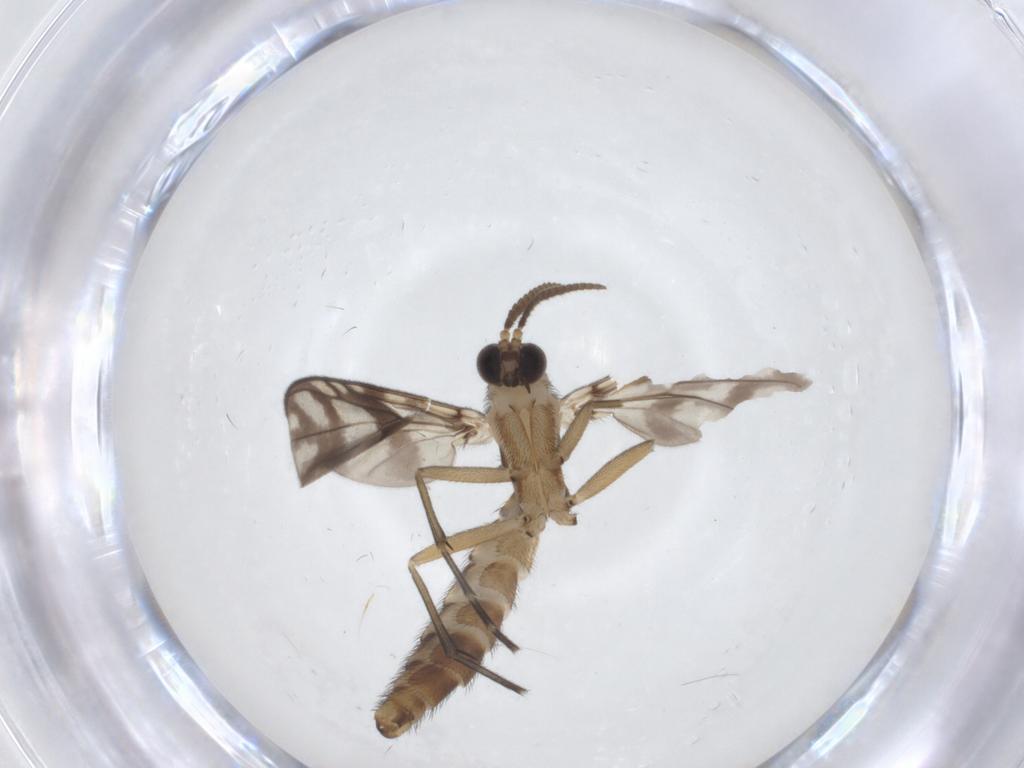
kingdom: Animalia
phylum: Arthropoda
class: Insecta
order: Diptera
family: Sciaridae
